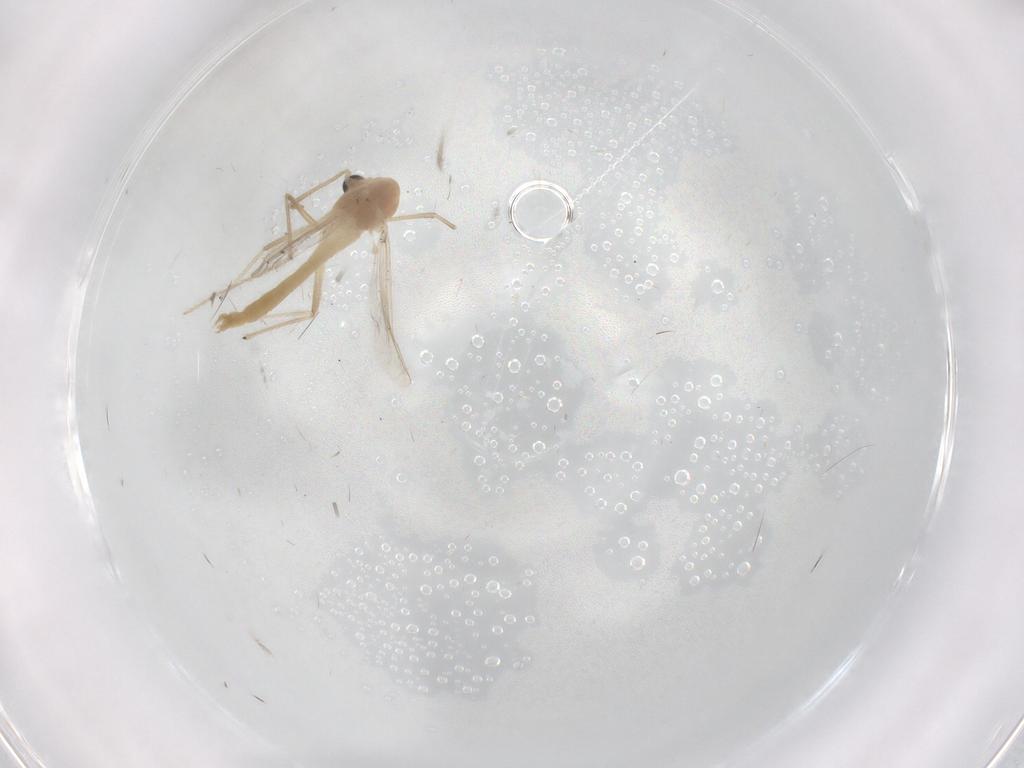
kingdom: Animalia
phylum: Arthropoda
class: Insecta
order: Diptera
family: Chironomidae
